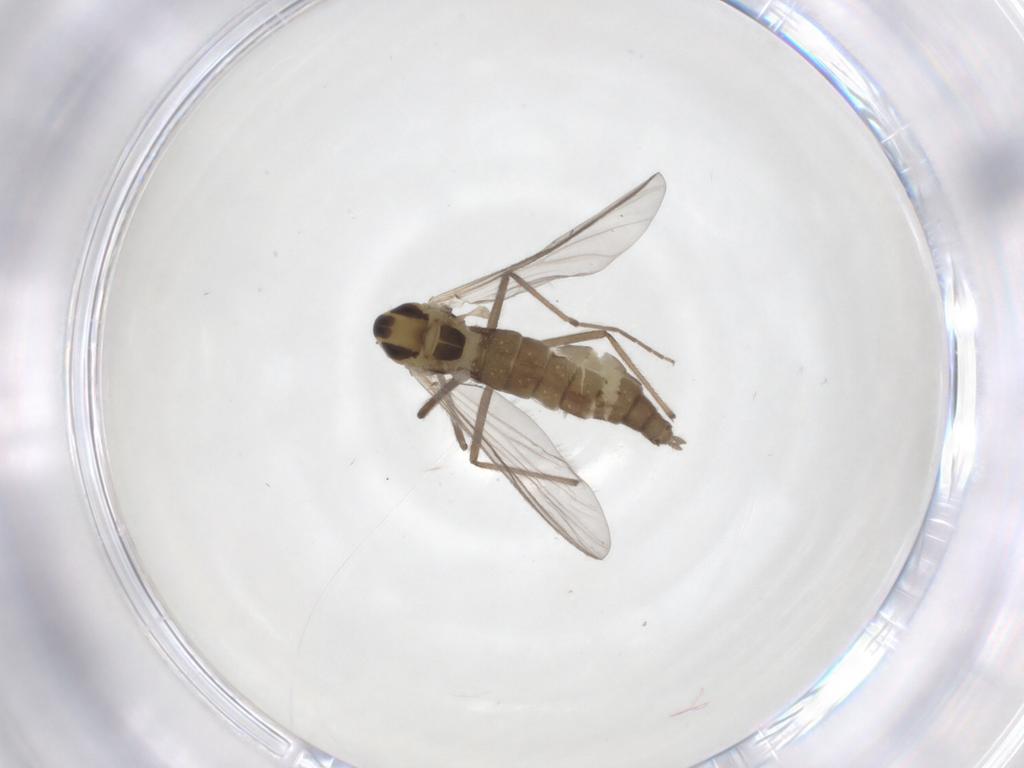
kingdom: Animalia
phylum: Arthropoda
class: Insecta
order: Diptera
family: Chironomidae
